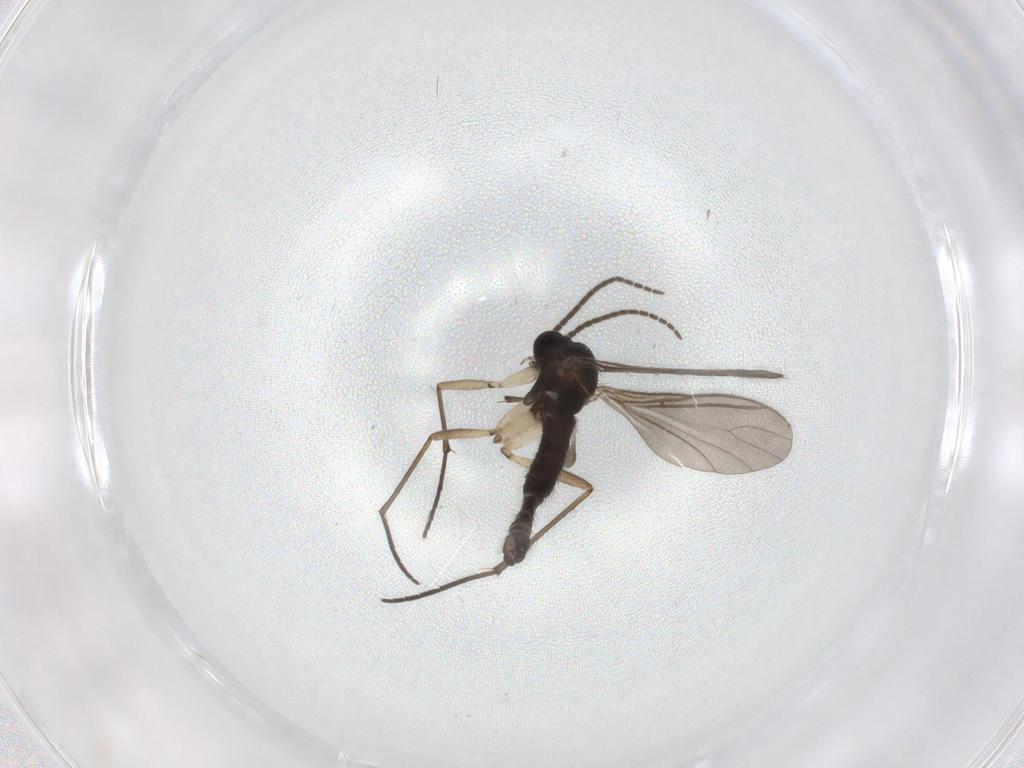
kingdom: Animalia
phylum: Arthropoda
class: Insecta
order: Diptera
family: Sciaridae
